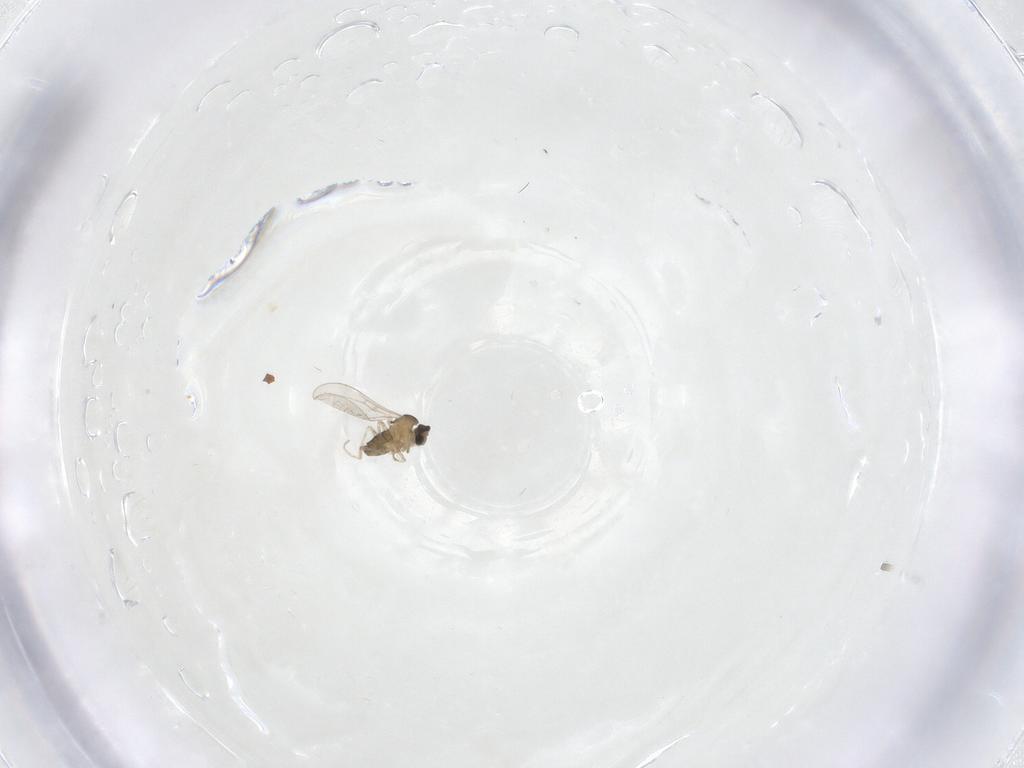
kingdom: Animalia
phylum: Arthropoda
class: Insecta
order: Diptera
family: Cecidomyiidae
